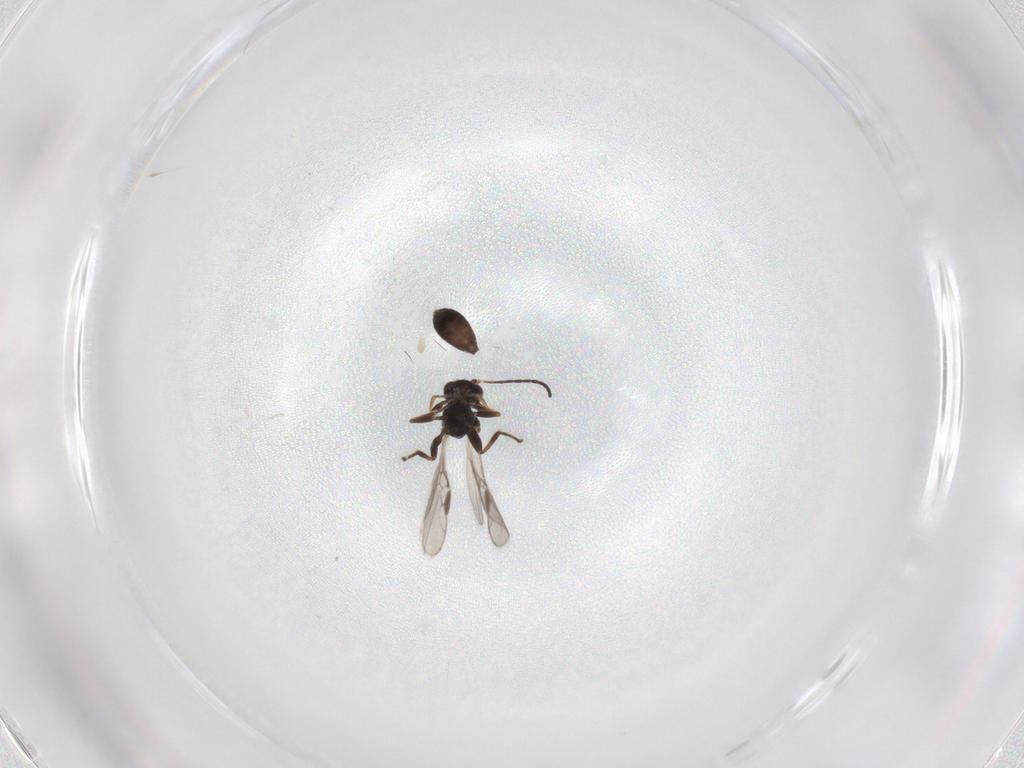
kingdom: Animalia
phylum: Arthropoda
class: Insecta
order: Hymenoptera
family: Braconidae
